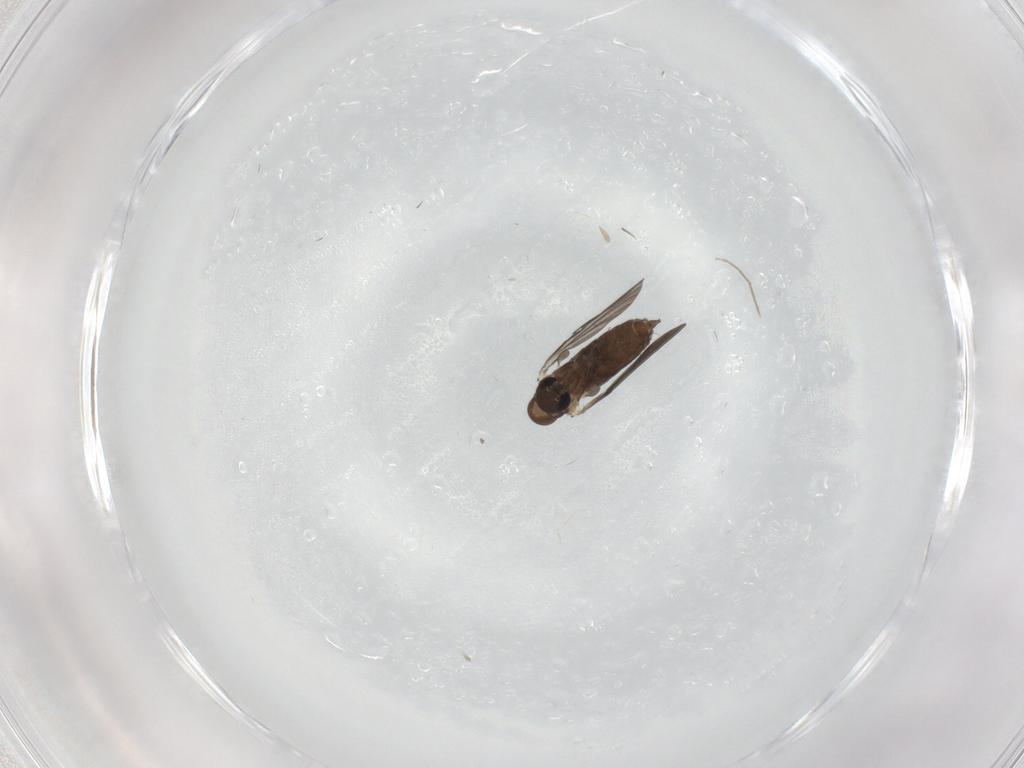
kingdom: Animalia
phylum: Arthropoda
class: Insecta
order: Diptera
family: Chironomidae
